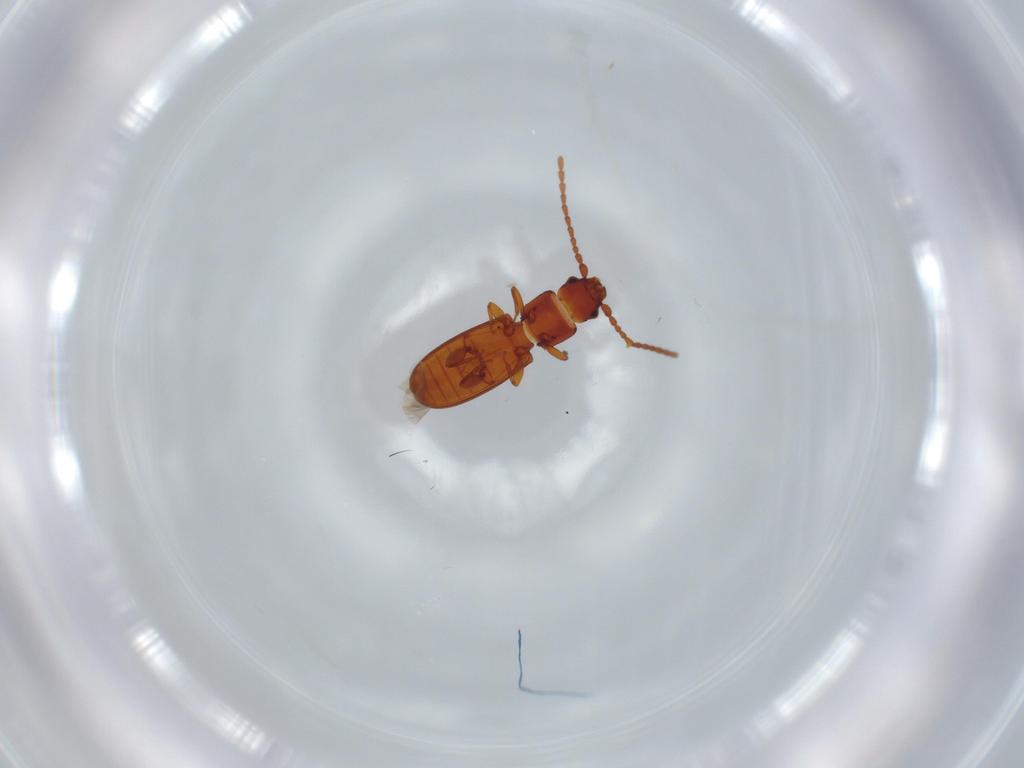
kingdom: Animalia
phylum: Arthropoda
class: Insecta
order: Coleoptera
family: Laemophloeidae
